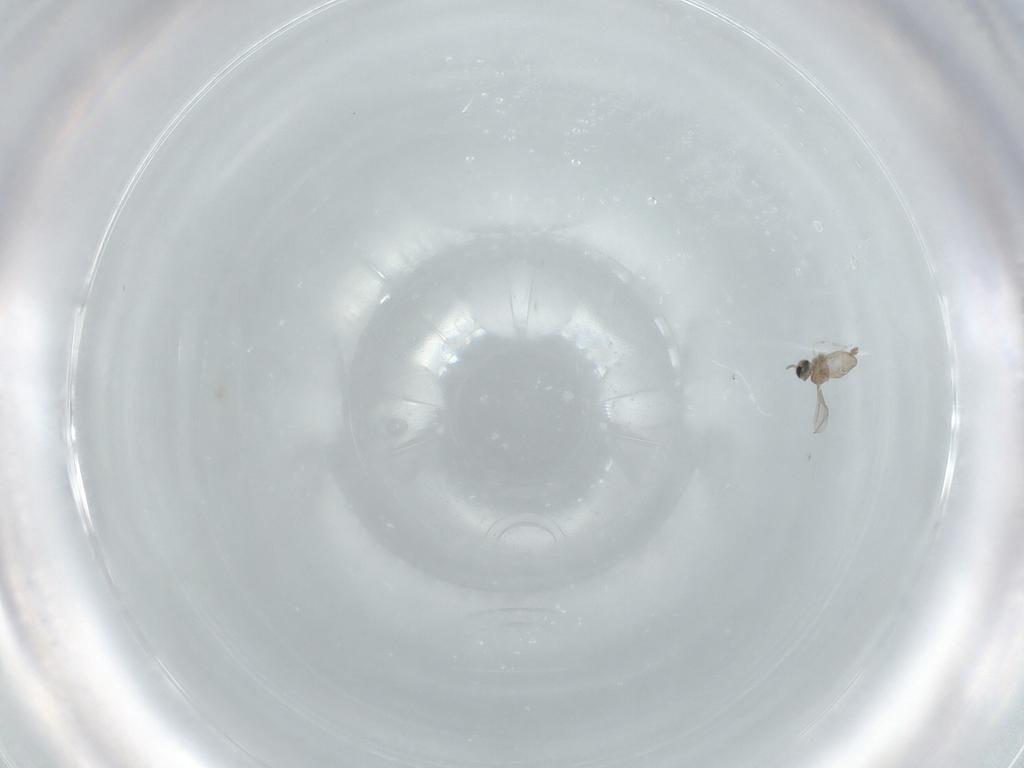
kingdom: Animalia
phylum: Arthropoda
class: Insecta
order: Diptera
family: Cecidomyiidae
